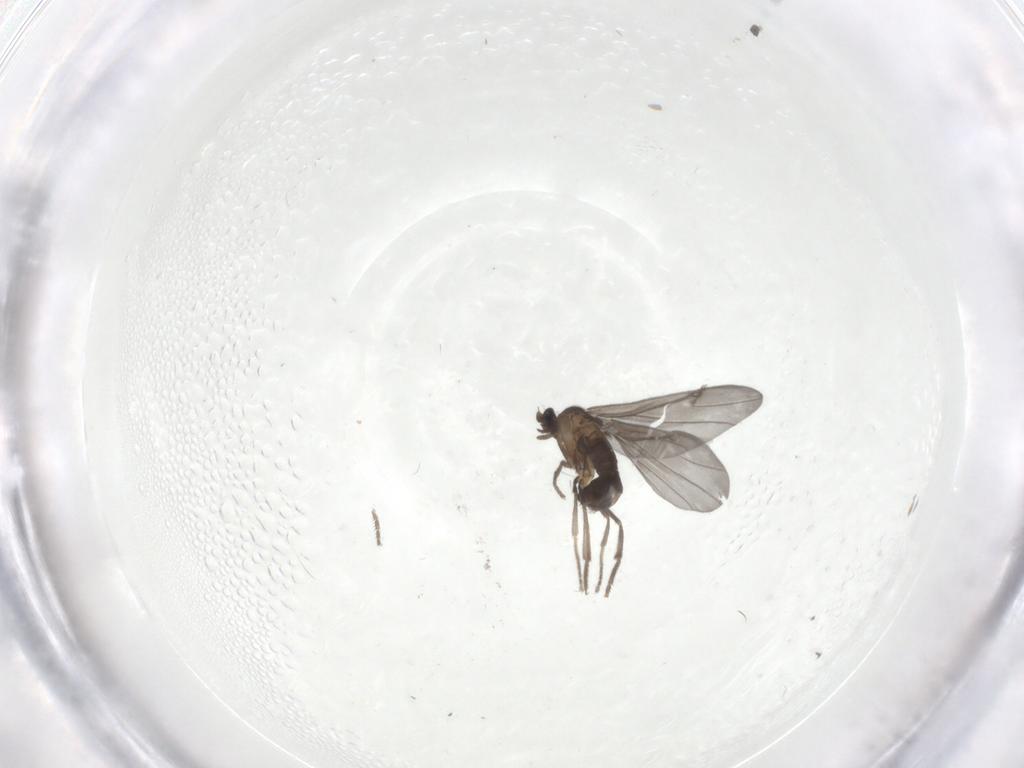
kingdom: Animalia
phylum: Arthropoda
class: Insecta
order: Diptera
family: Phoridae
